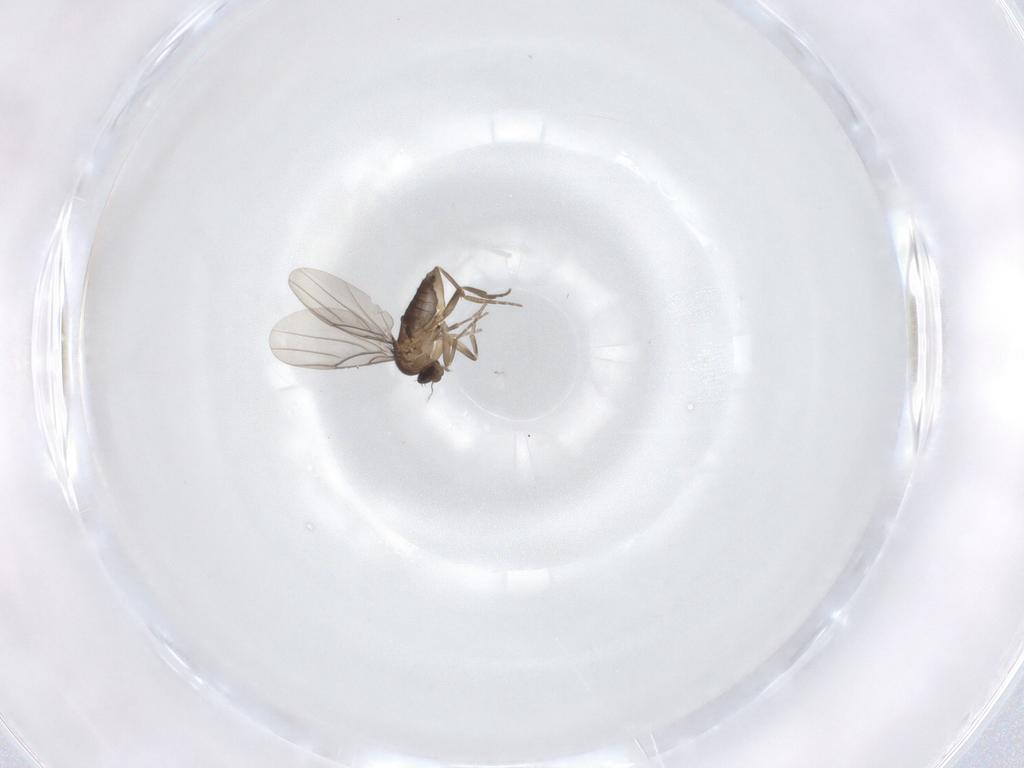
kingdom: Animalia
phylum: Arthropoda
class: Insecta
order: Diptera
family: Phoridae
